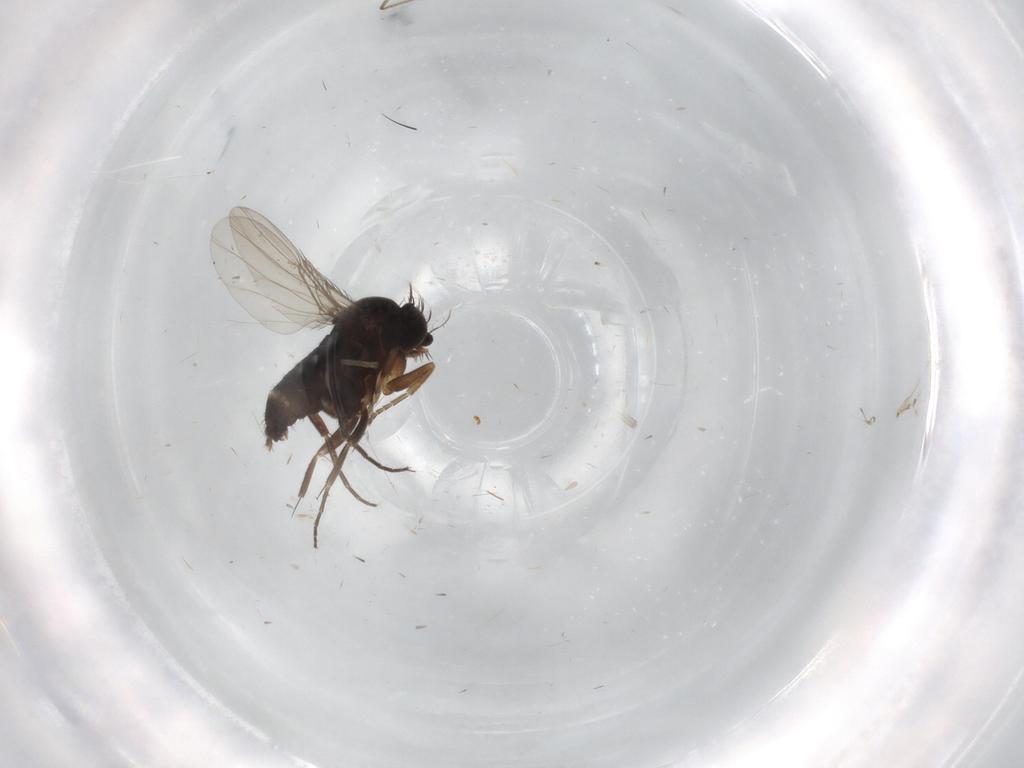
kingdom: Animalia
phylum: Arthropoda
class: Insecta
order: Diptera
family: Phoridae
